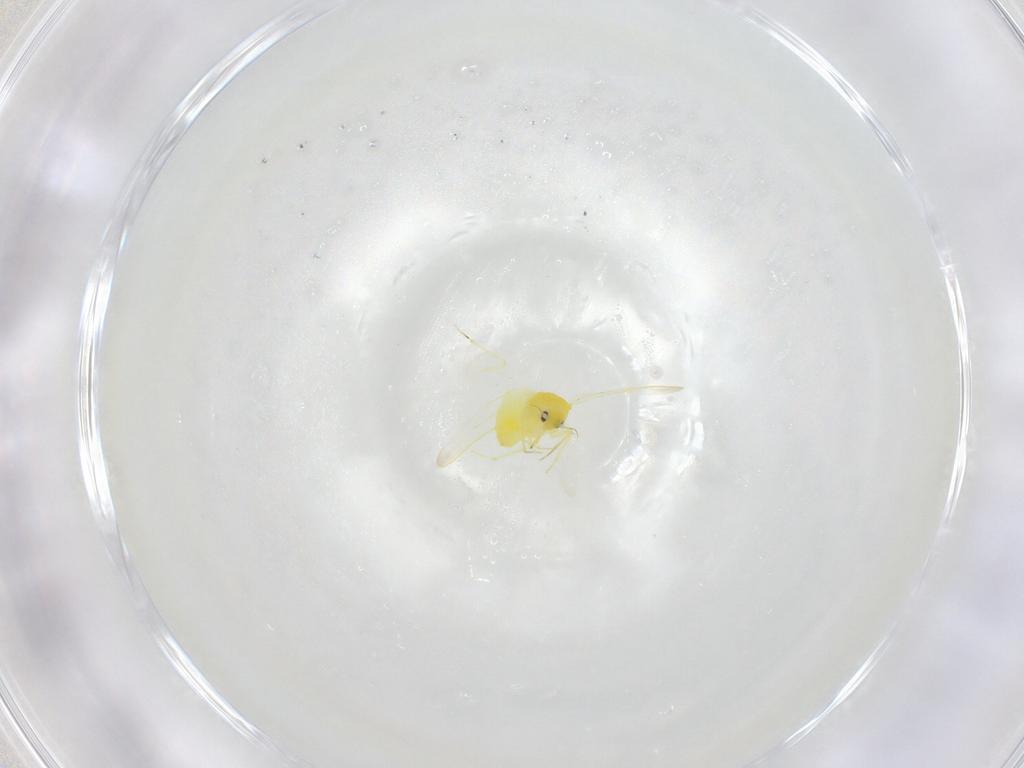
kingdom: Animalia
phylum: Arthropoda
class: Insecta
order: Hemiptera
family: Aleyrodidae
